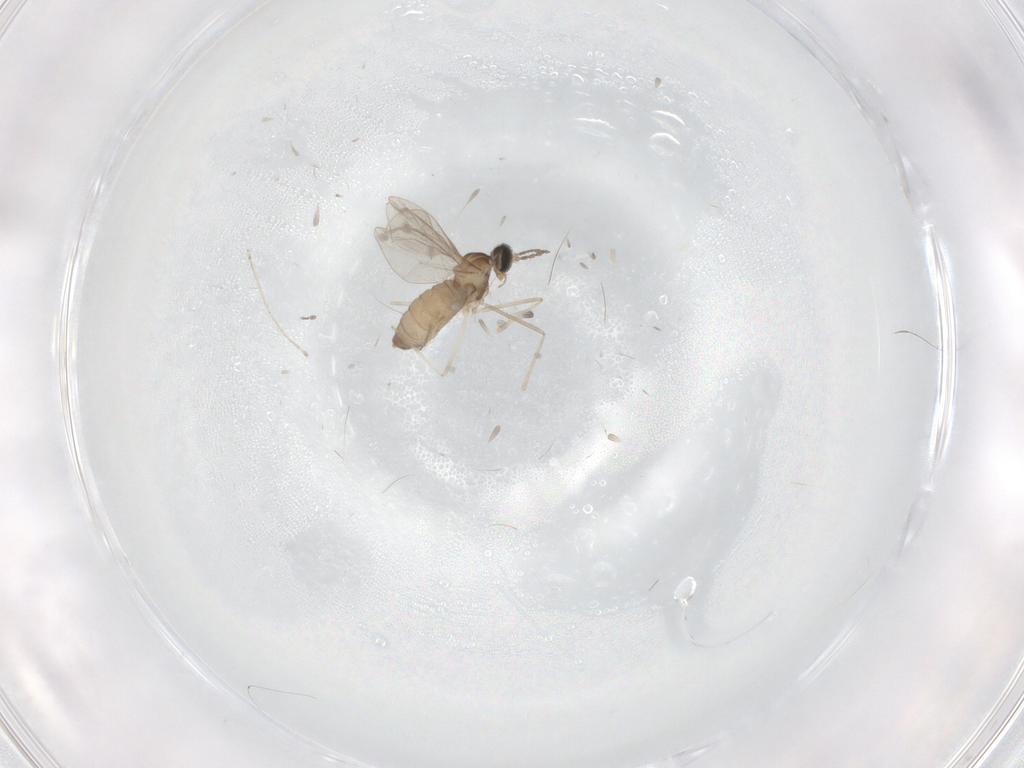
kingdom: Animalia
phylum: Arthropoda
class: Insecta
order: Diptera
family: Cecidomyiidae
